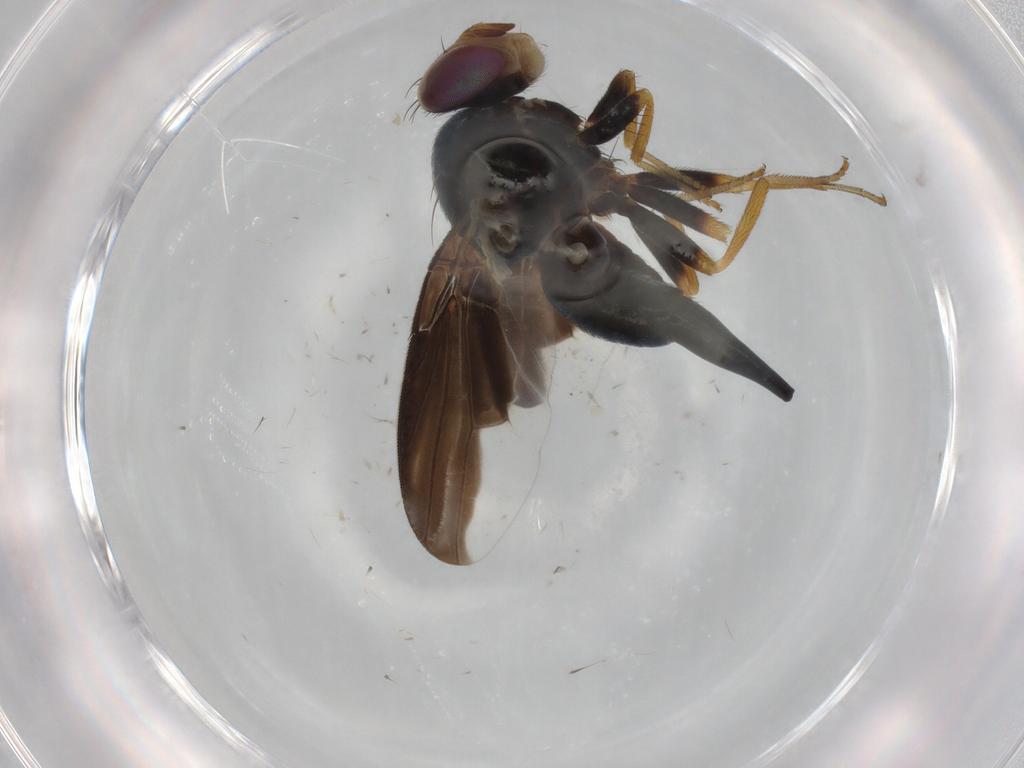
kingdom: Animalia
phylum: Arthropoda
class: Insecta
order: Diptera
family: Tephritidae
